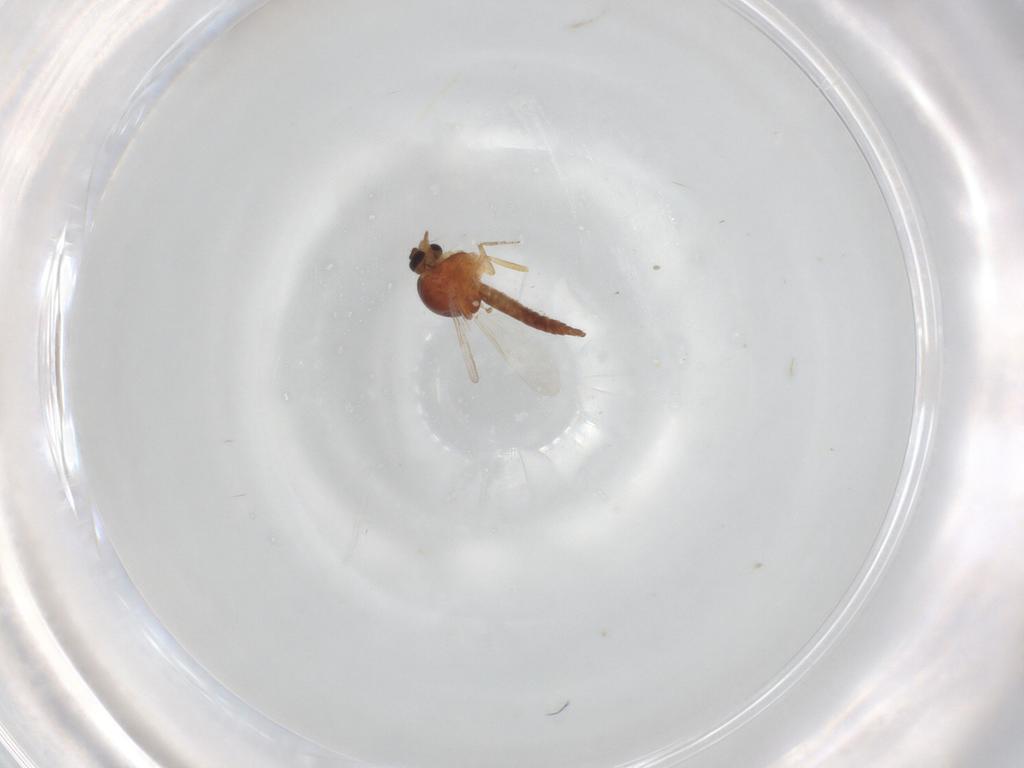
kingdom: Animalia
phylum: Arthropoda
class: Insecta
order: Diptera
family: Ceratopogonidae
